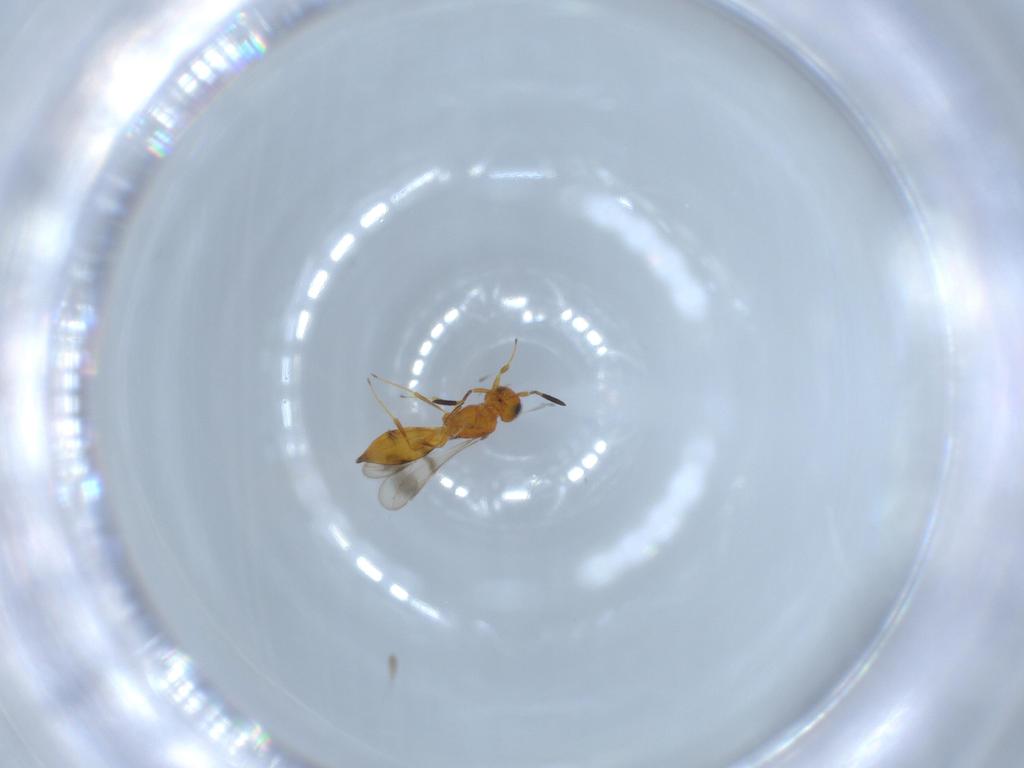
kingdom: Animalia
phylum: Arthropoda
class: Insecta
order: Hymenoptera
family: Scelionidae
